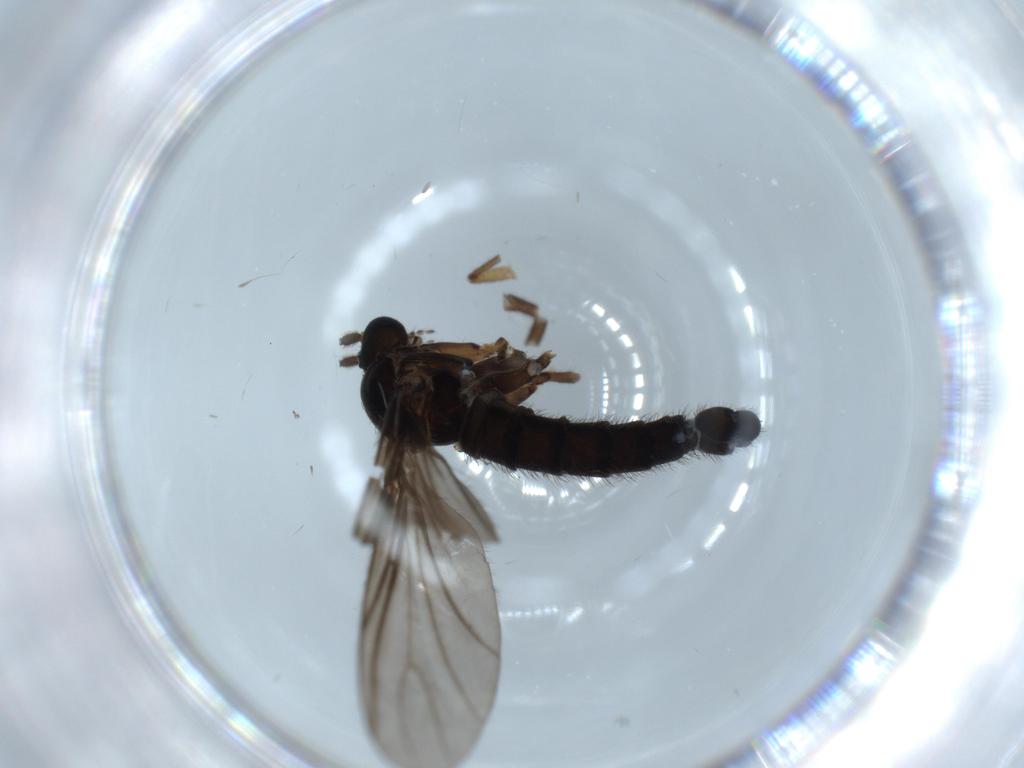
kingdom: Animalia
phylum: Arthropoda
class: Insecta
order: Diptera
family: Sciaridae
